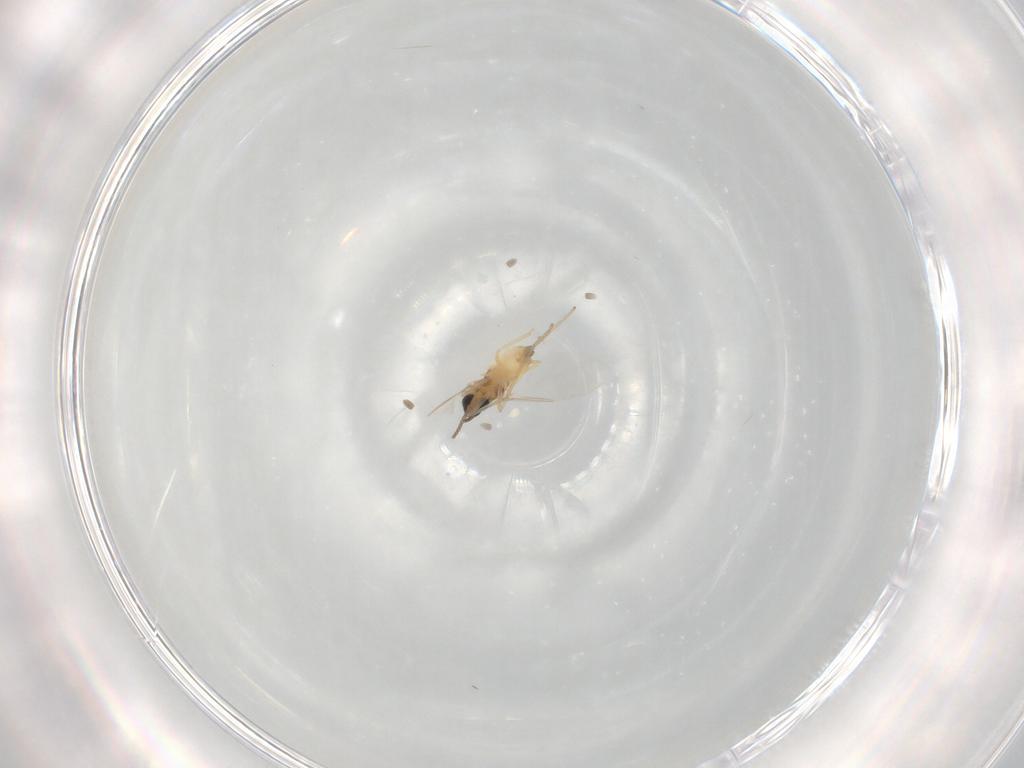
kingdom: Animalia
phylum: Arthropoda
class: Insecta
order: Diptera
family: Cecidomyiidae
